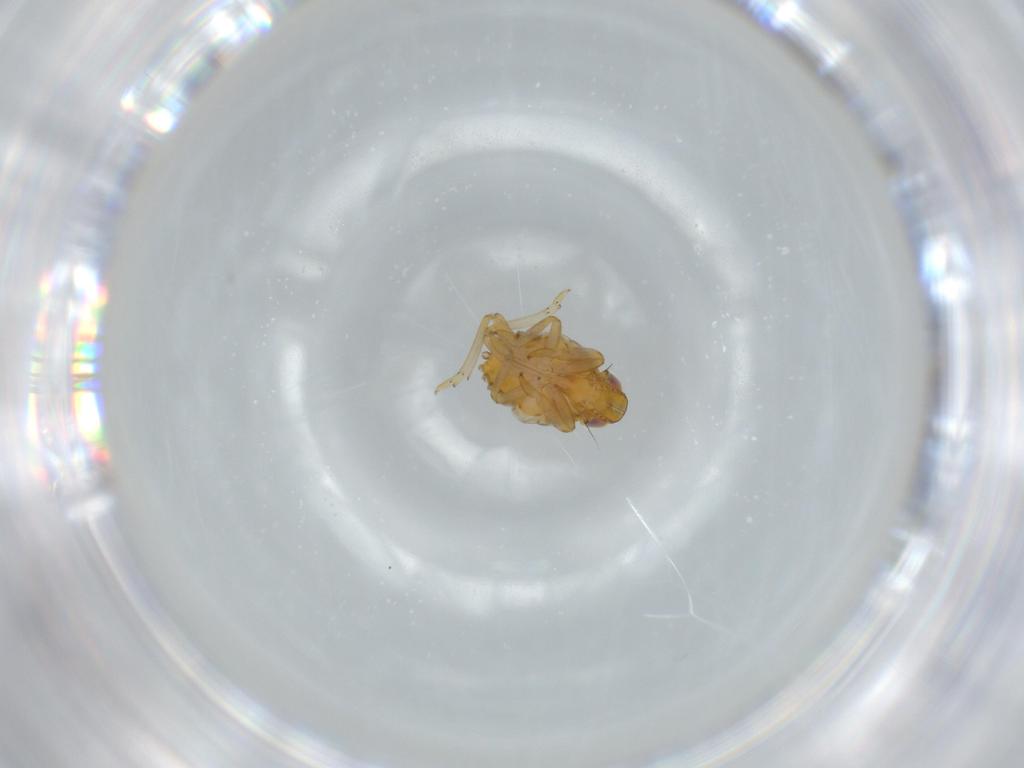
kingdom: Animalia
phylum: Arthropoda
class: Insecta
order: Hemiptera
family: Issidae
